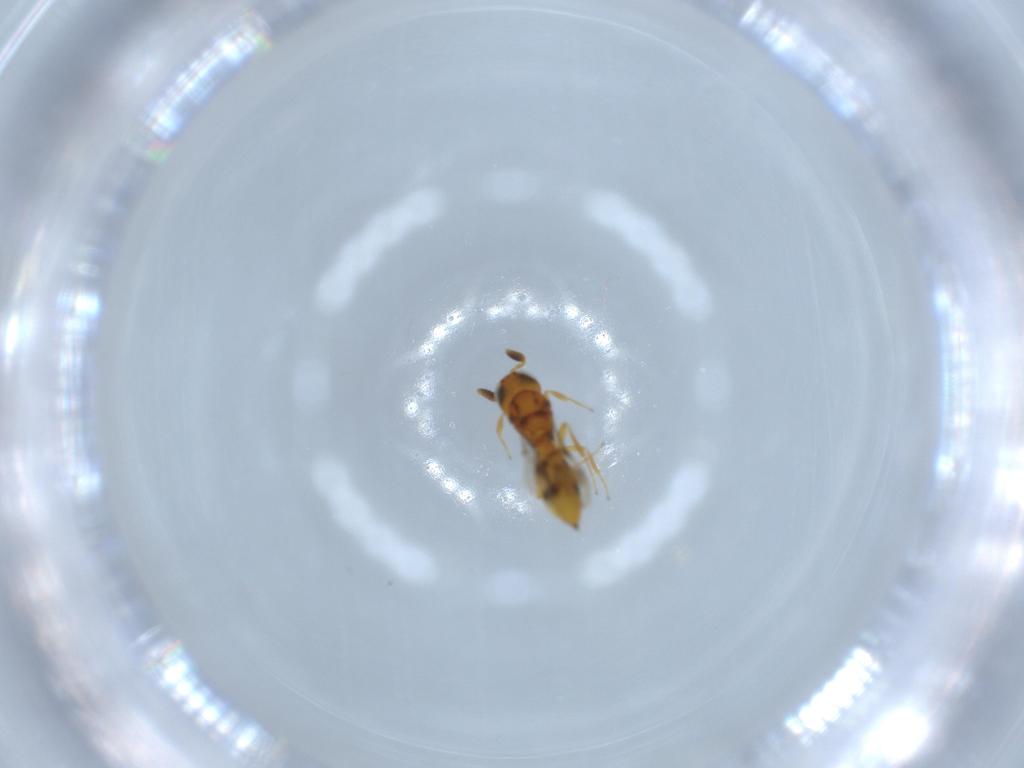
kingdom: Animalia
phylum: Arthropoda
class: Insecta
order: Hymenoptera
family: Scelionidae
